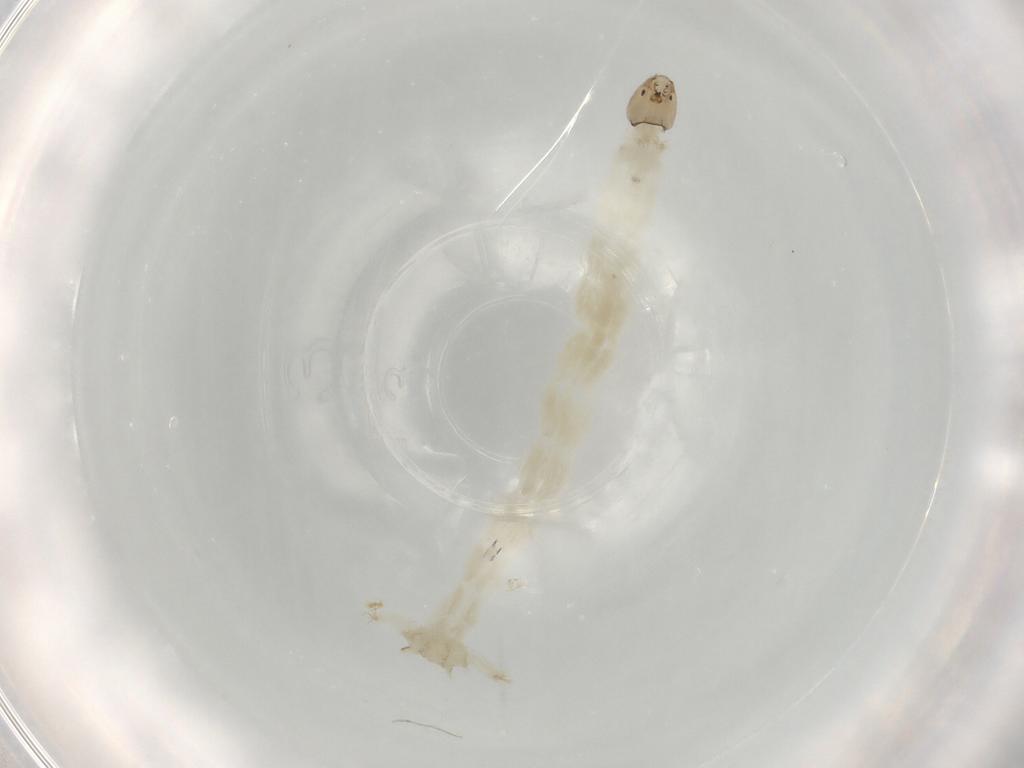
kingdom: Animalia
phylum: Arthropoda
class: Insecta
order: Diptera
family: Chironomidae
